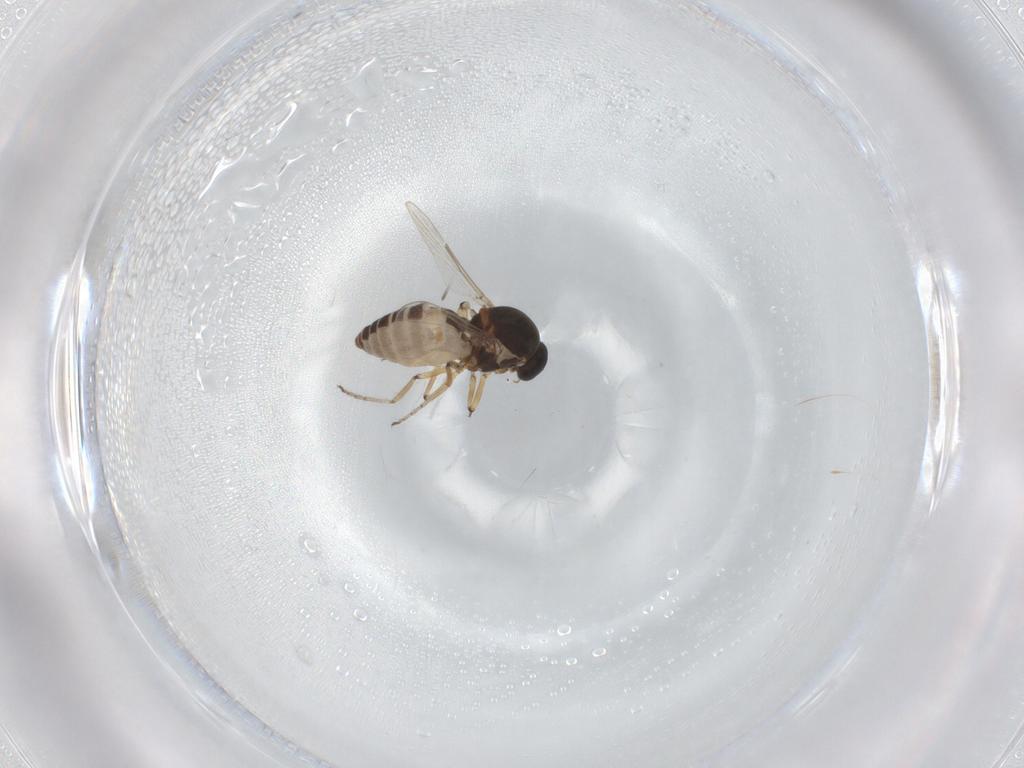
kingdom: Animalia
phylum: Arthropoda
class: Insecta
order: Diptera
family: Ceratopogonidae
